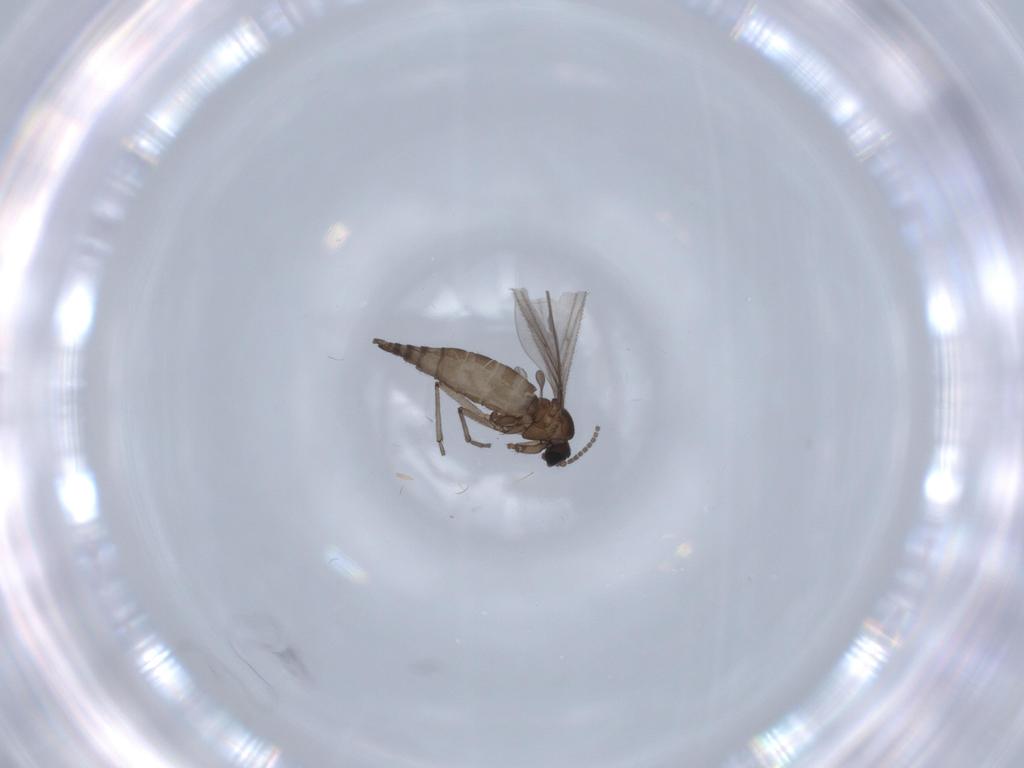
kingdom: Animalia
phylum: Arthropoda
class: Insecta
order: Diptera
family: Sciaridae
